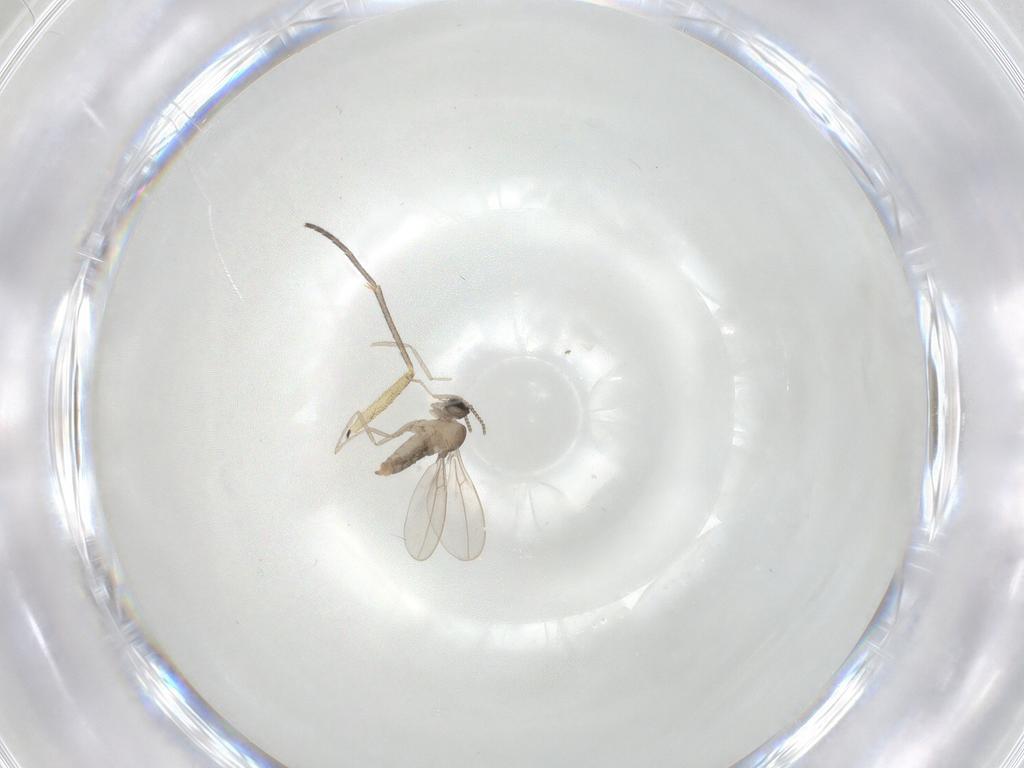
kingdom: Animalia
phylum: Arthropoda
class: Insecta
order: Diptera
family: Cecidomyiidae
